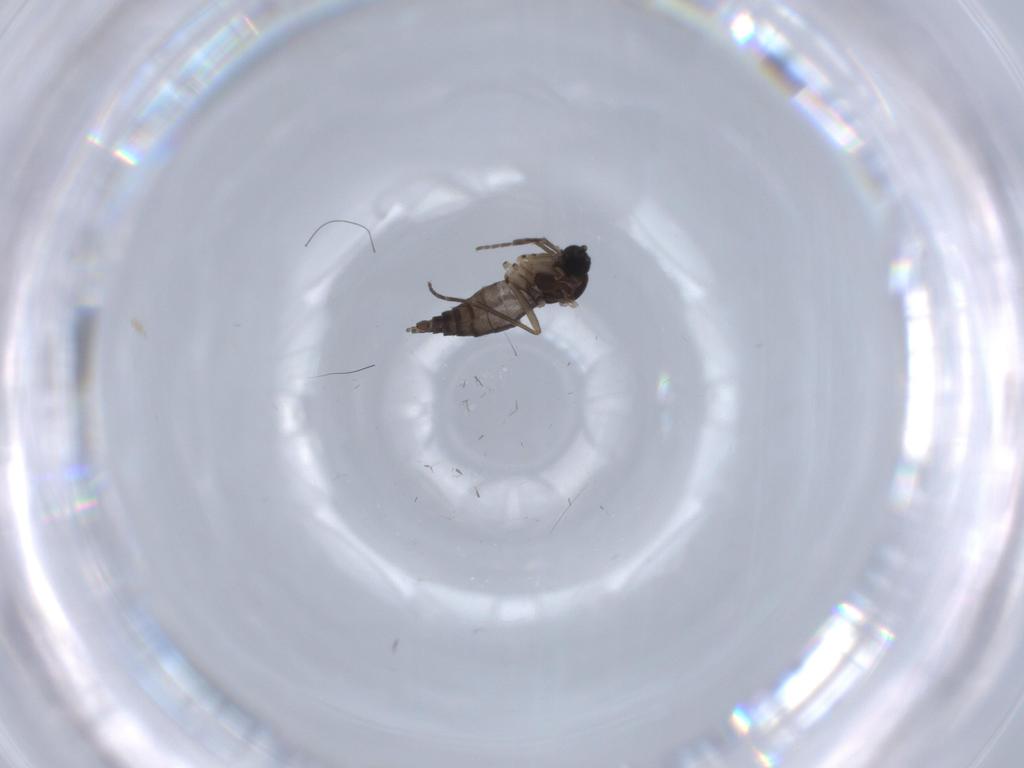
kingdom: Animalia
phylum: Arthropoda
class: Insecta
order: Diptera
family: Sciaridae
